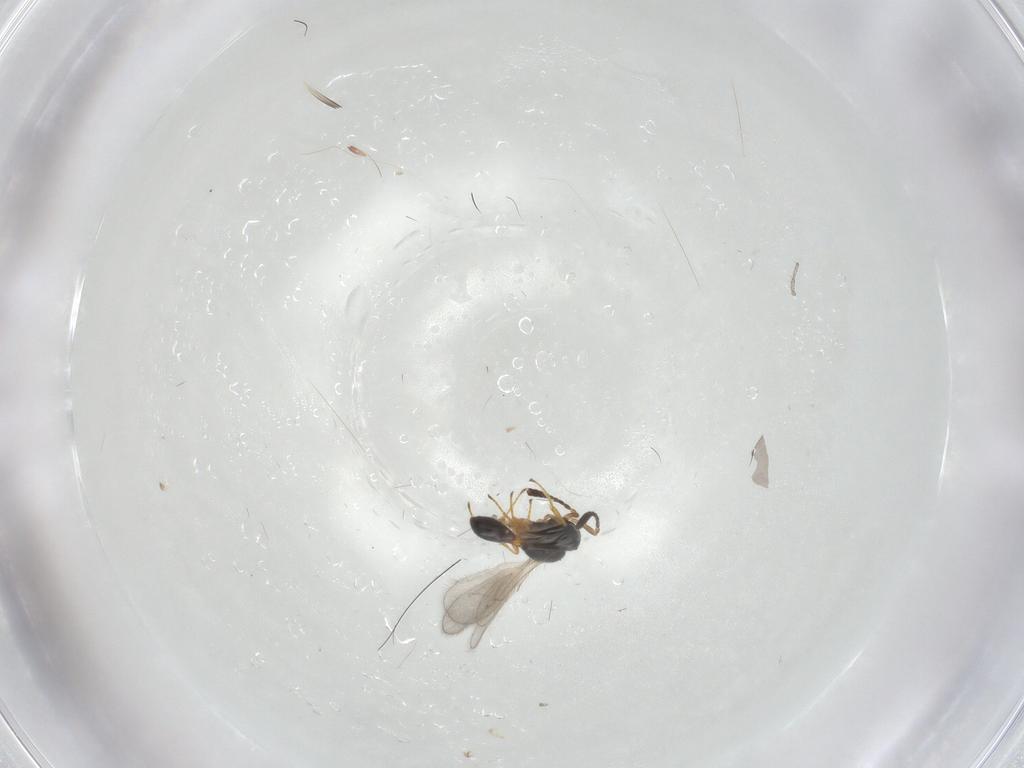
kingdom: Animalia
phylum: Arthropoda
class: Insecta
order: Hymenoptera
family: Scelionidae
